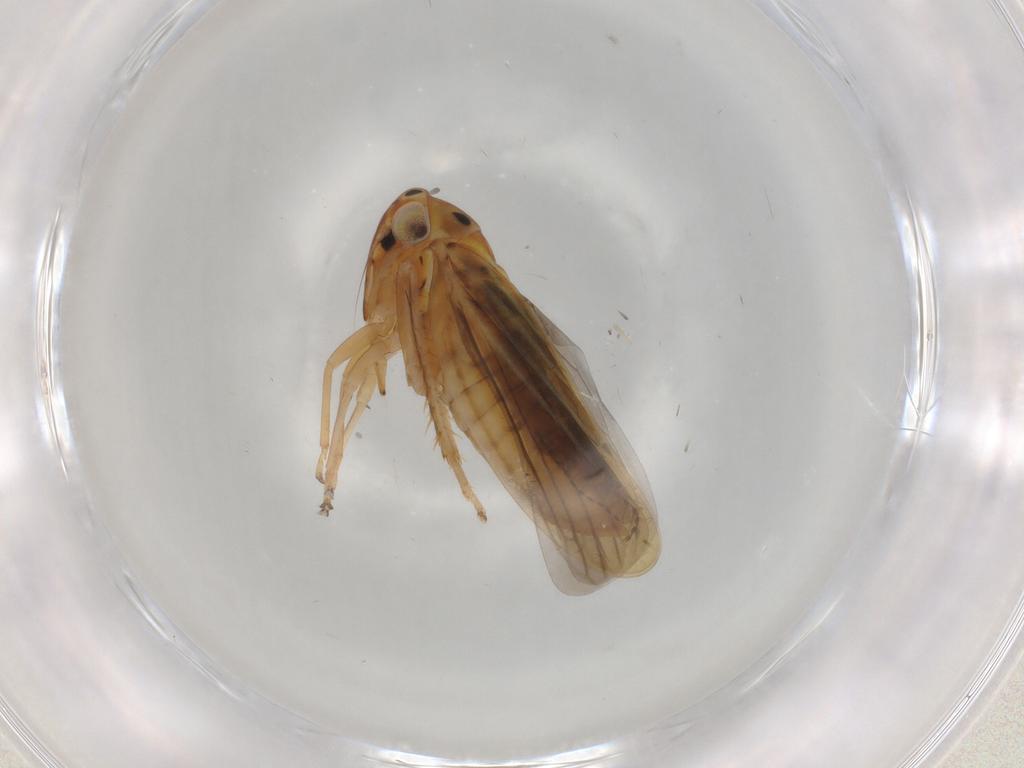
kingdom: Animalia
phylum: Arthropoda
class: Insecta
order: Hemiptera
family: Cicadellidae
